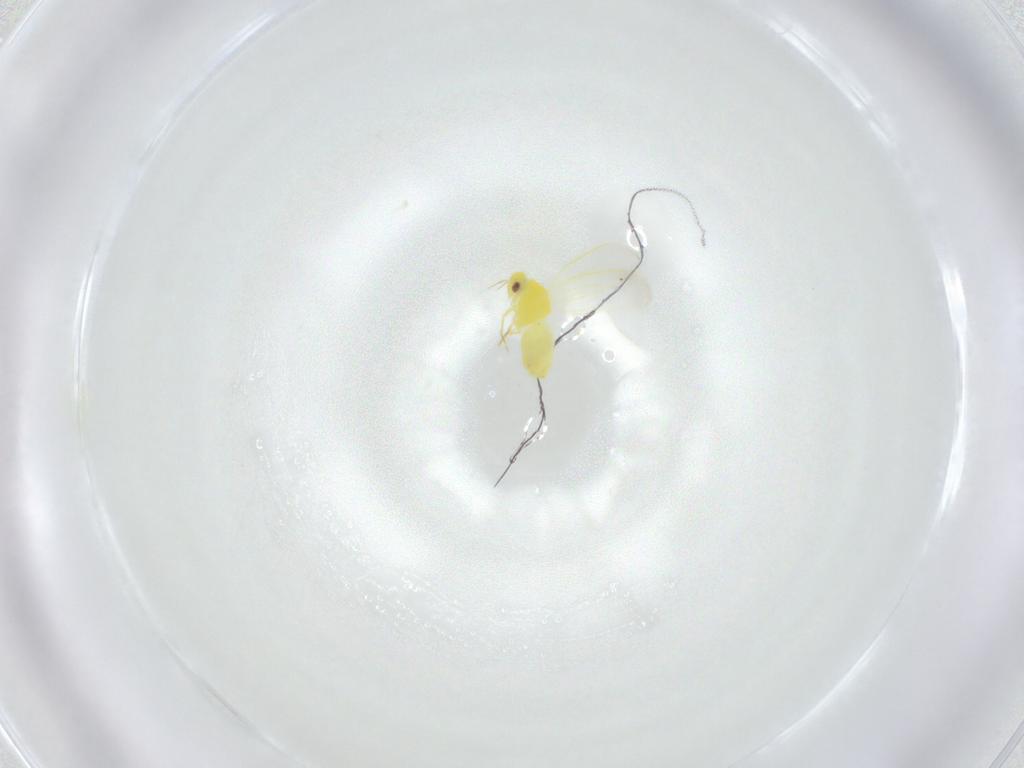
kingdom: Animalia
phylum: Arthropoda
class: Insecta
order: Hemiptera
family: Aleyrodidae
